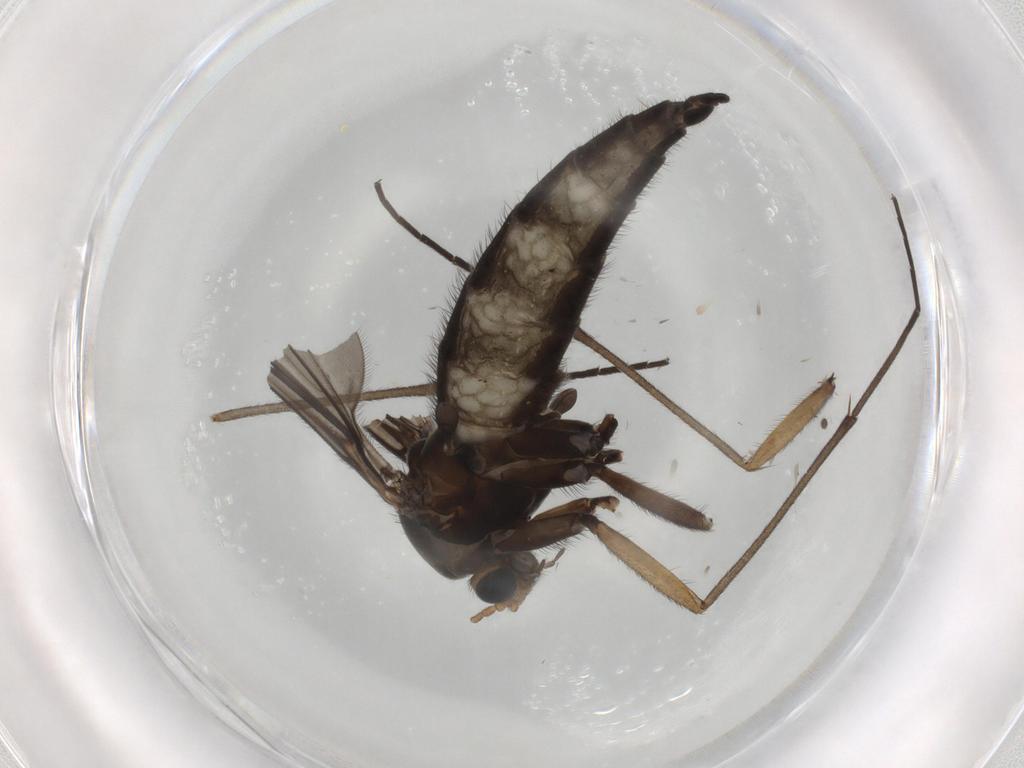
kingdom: Animalia
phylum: Arthropoda
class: Insecta
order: Diptera
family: Sciaridae
